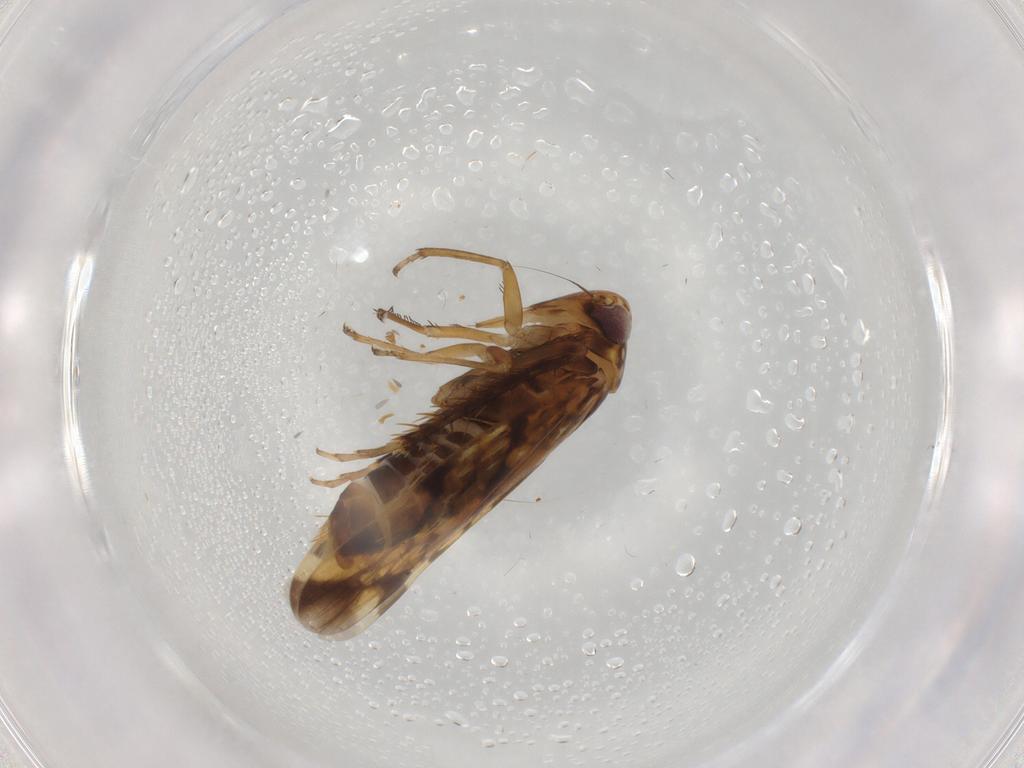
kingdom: Animalia
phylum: Arthropoda
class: Insecta
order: Hemiptera
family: Cicadellidae
